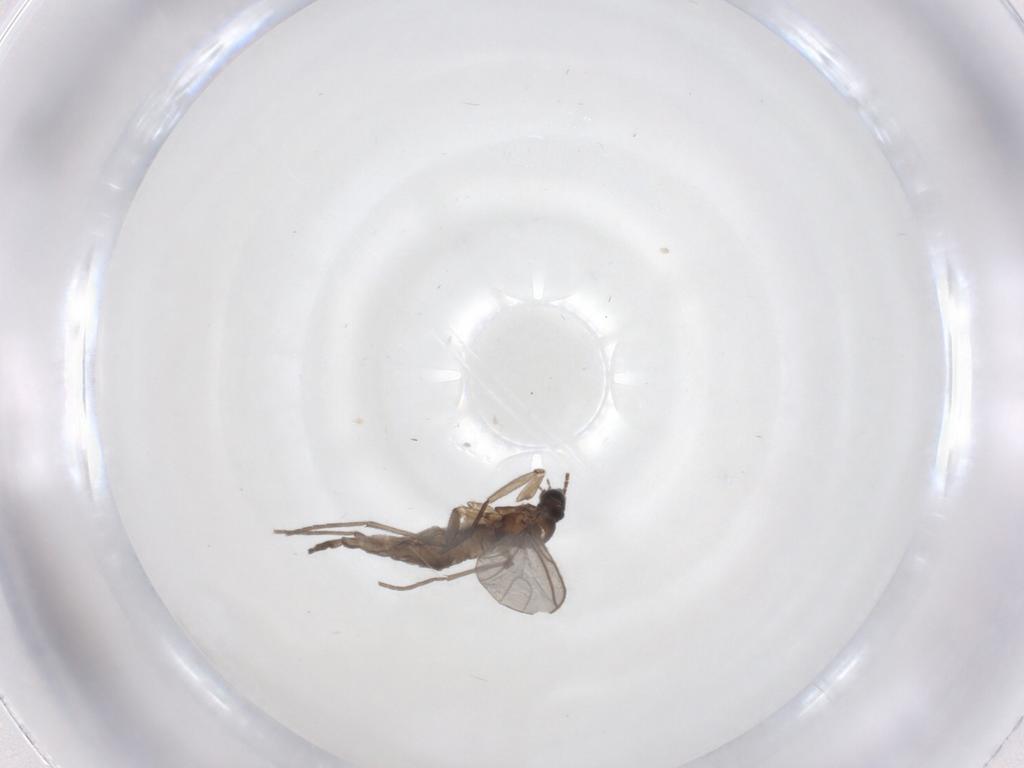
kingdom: Animalia
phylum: Arthropoda
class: Insecta
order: Diptera
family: Sciaridae
